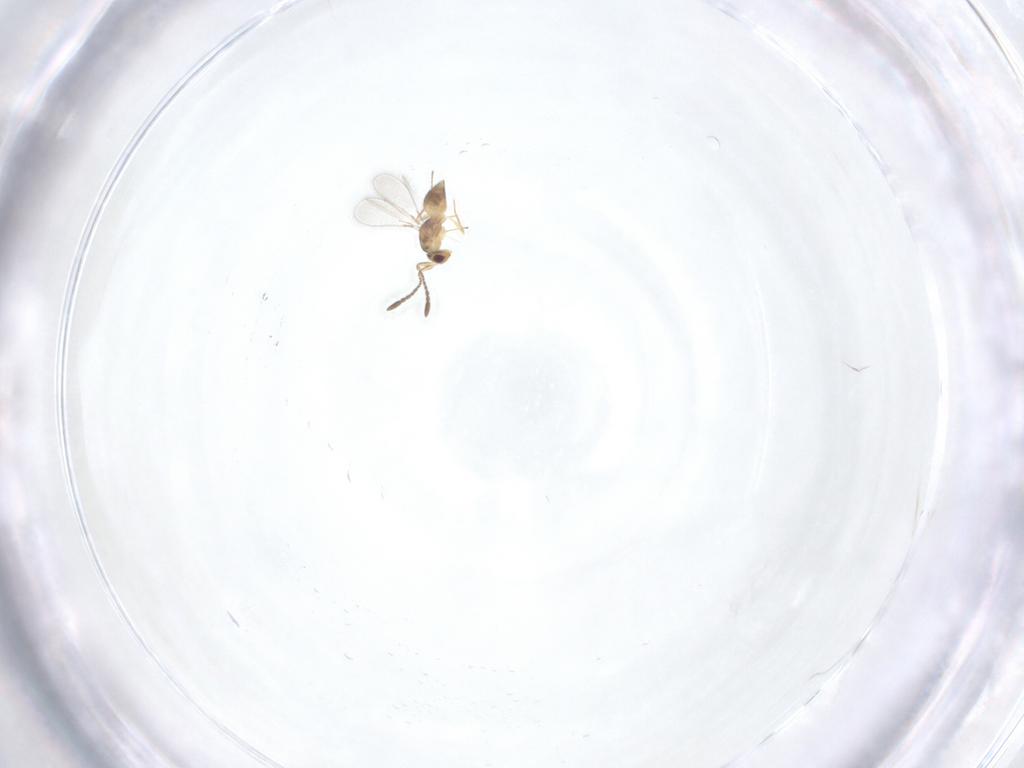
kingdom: Animalia
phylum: Arthropoda
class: Insecta
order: Hymenoptera
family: Mymaridae
